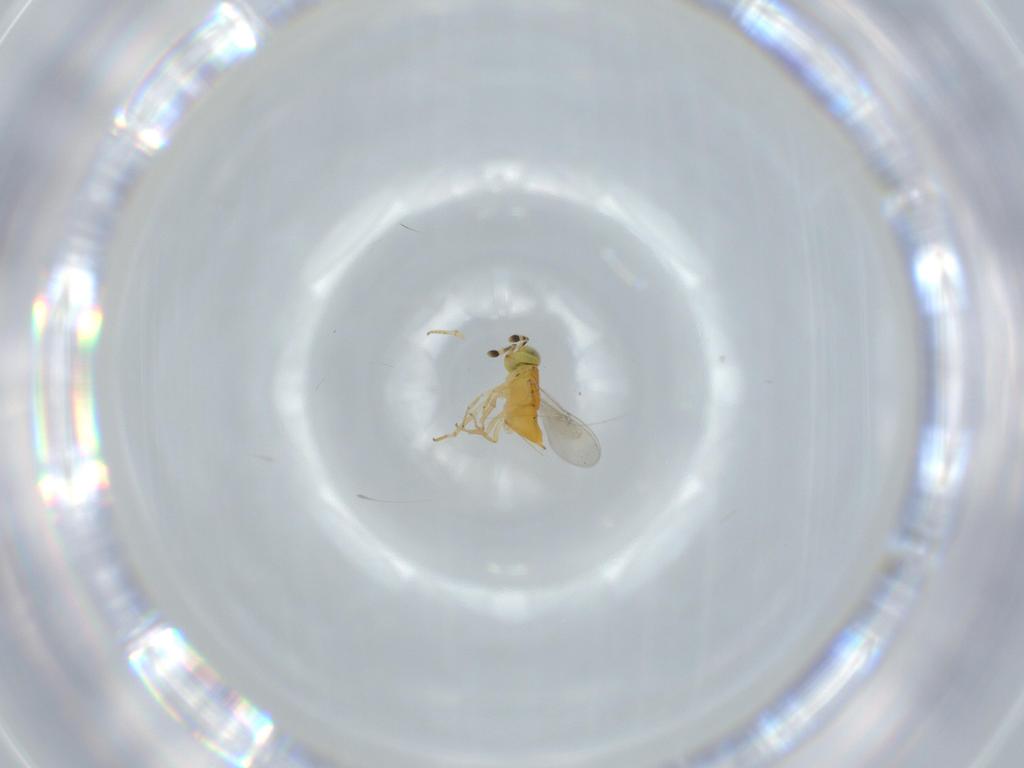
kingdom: Animalia
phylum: Arthropoda
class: Insecta
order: Hymenoptera
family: Encyrtidae
